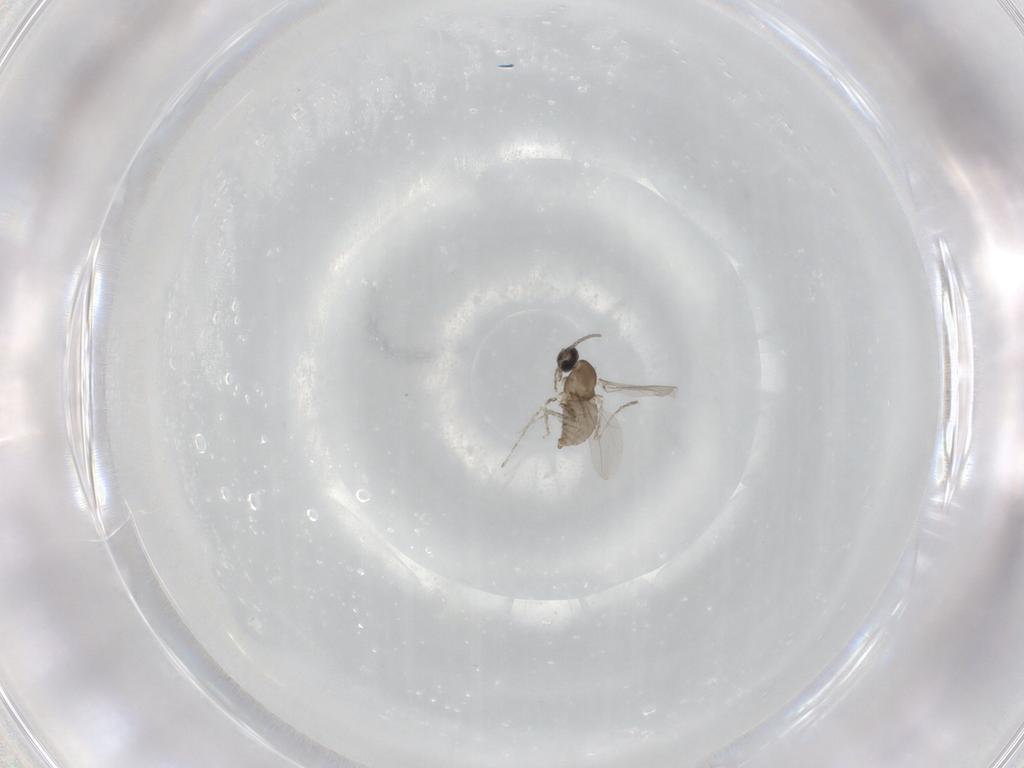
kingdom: Animalia
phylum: Arthropoda
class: Insecta
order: Diptera
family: Cecidomyiidae
